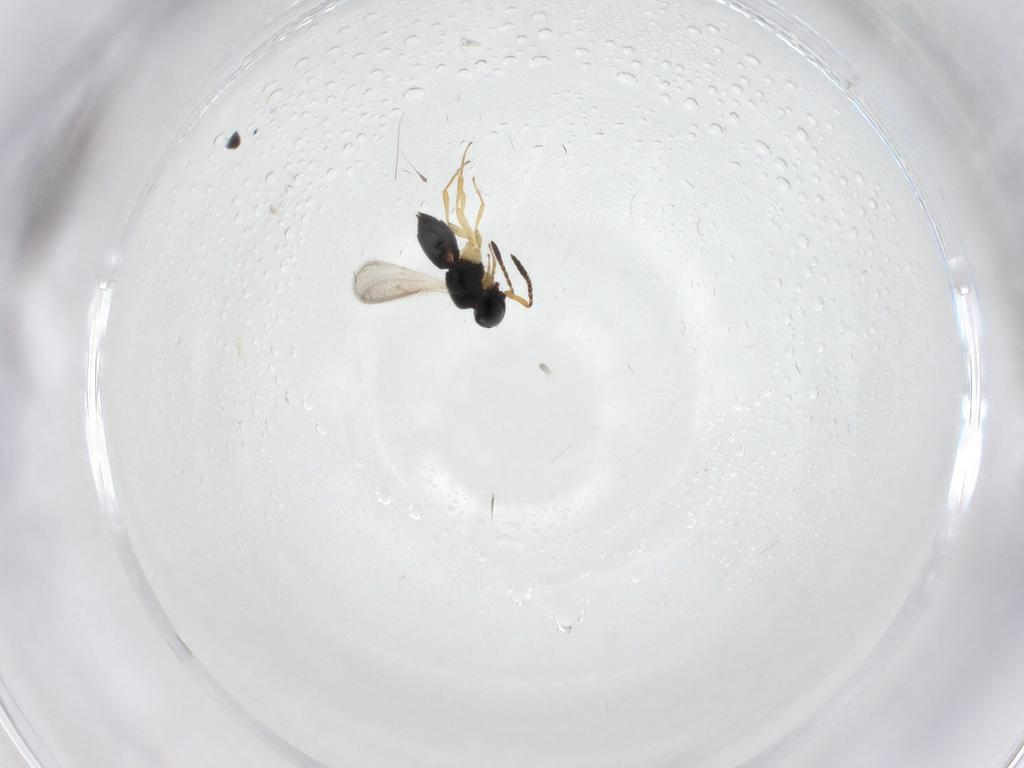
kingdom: Animalia
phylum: Arthropoda
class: Insecta
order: Hymenoptera
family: Scelionidae
